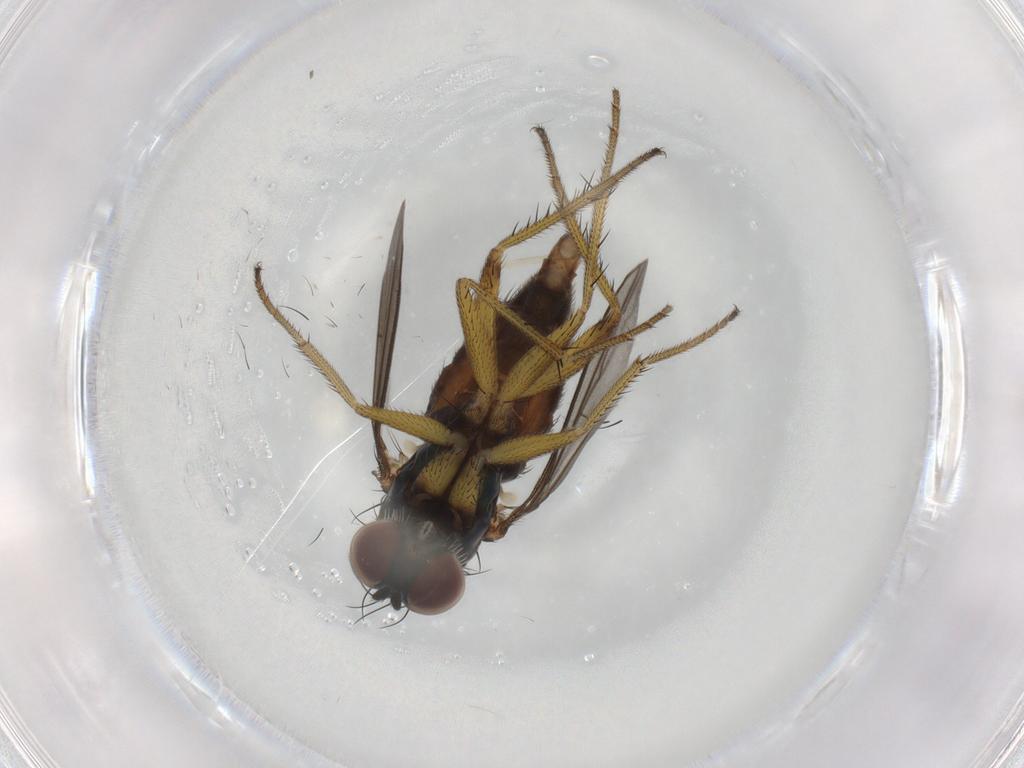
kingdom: Animalia
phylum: Arthropoda
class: Insecta
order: Diptera
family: Dolichopodidae
